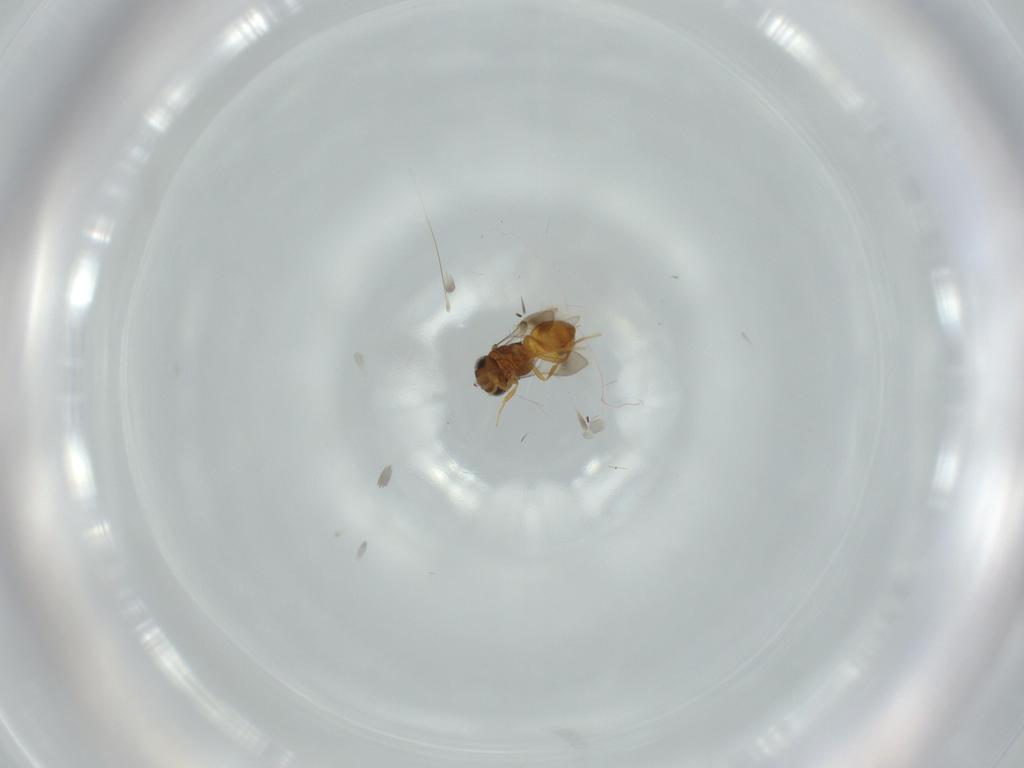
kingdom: Animalia
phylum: Arthropoda
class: Insecta
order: Hymenoptera
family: Scelionidae
